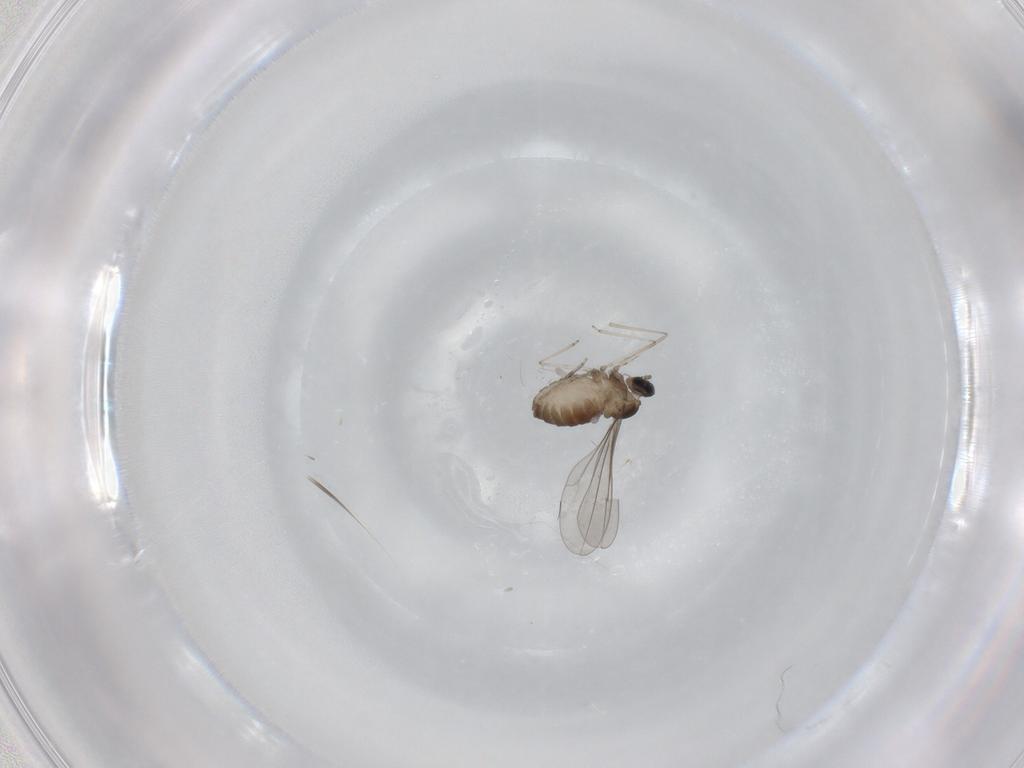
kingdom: Animalia
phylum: Arthropoda
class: Insecta
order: Diptera
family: Cecidomyiidae
